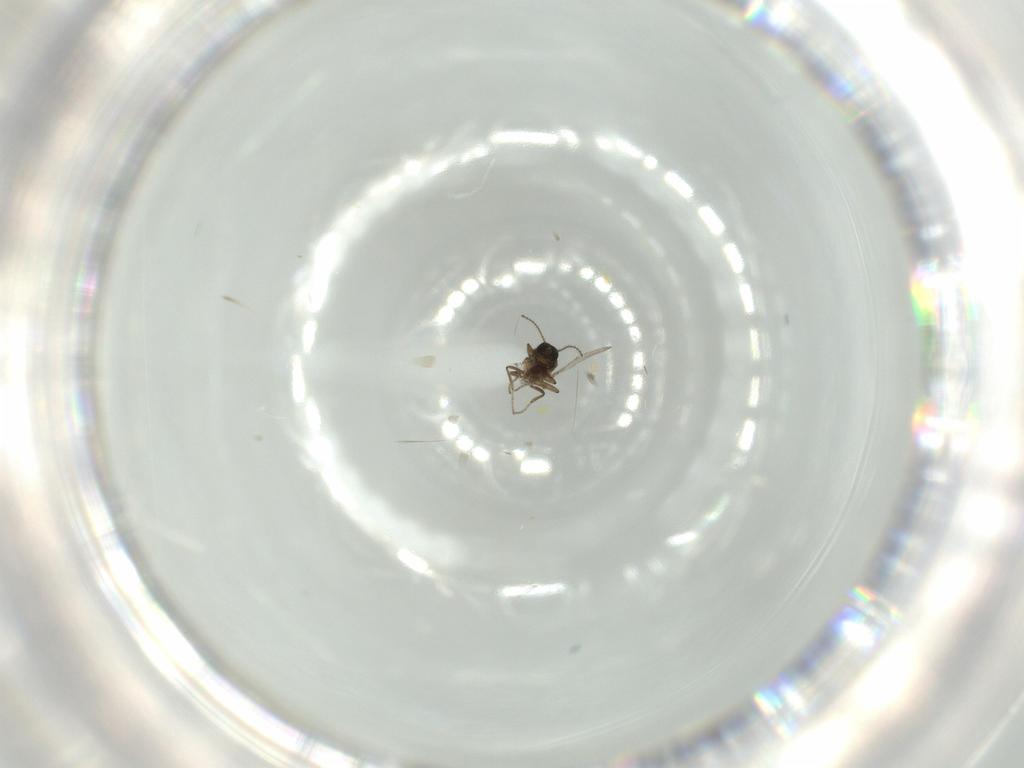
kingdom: Animalia
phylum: Arthropoda
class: Insecta
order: Diptera
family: Ceratopogonidae
